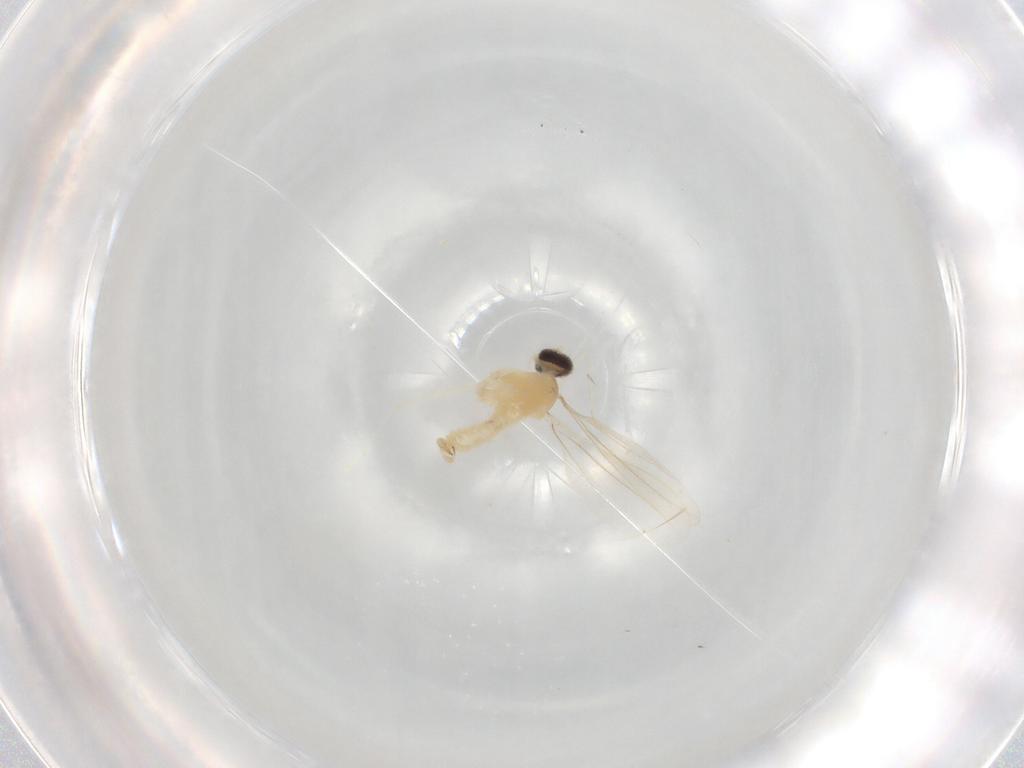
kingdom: Animalia
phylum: Arthropoda
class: Insecta
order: Diptera
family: Cecidomyiidae
